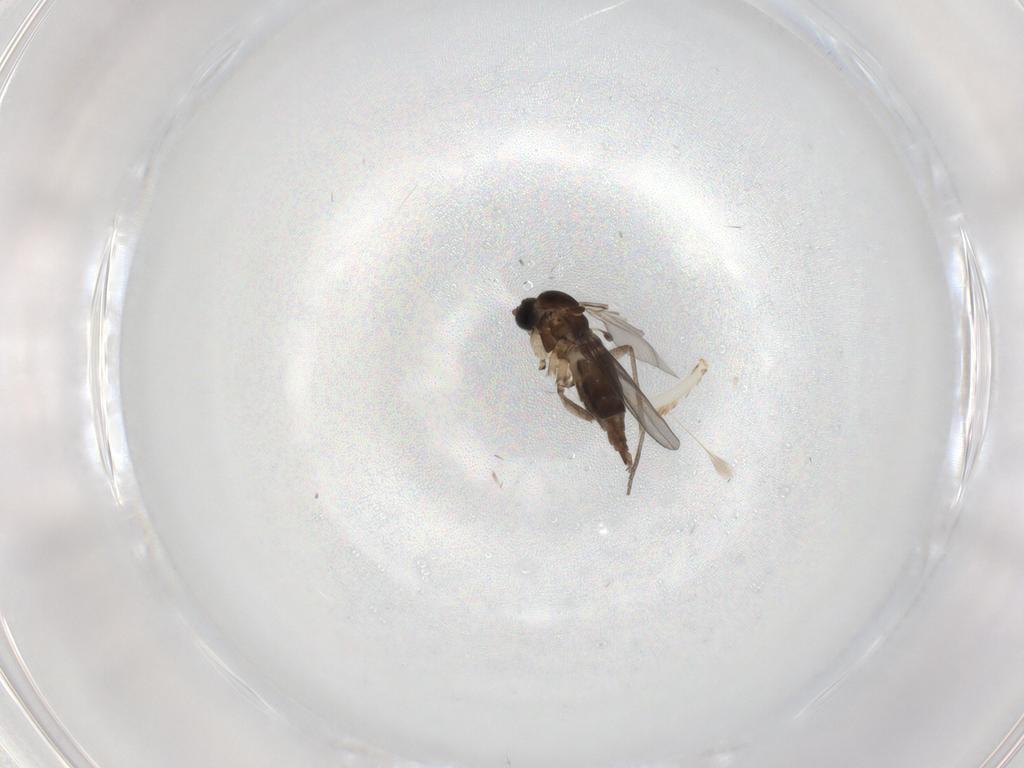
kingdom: Animalia
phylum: Arthropoda
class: Insecta
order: Diptera
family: Sciaridae
